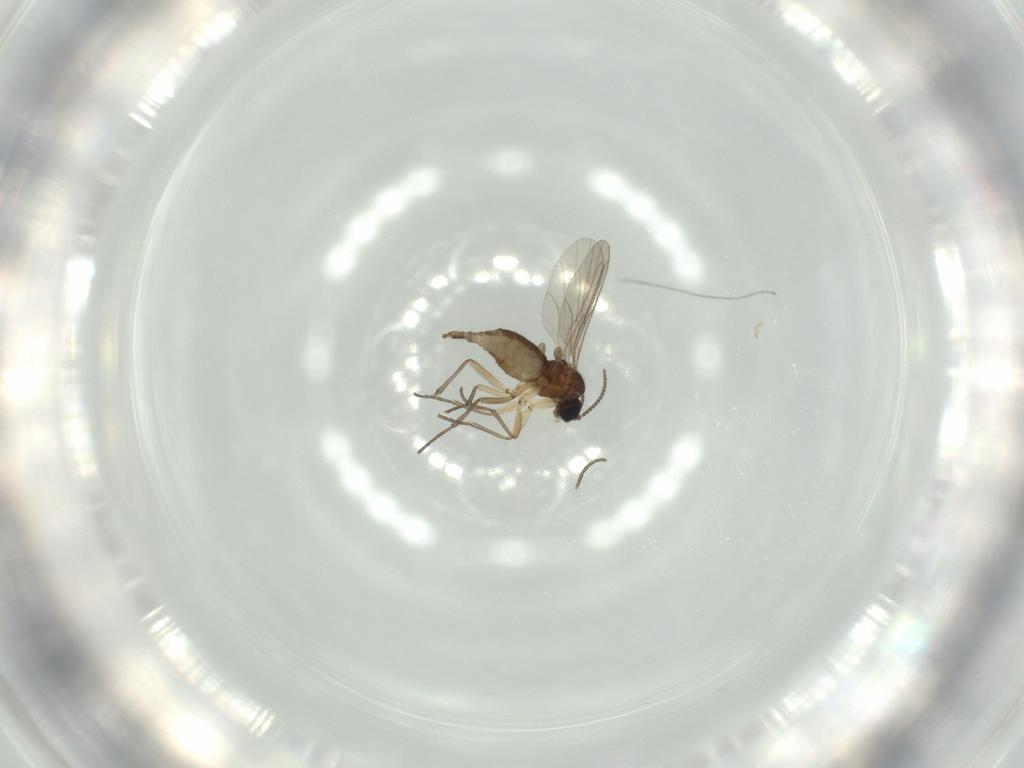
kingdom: Animalia
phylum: Arthropoda
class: Insecta
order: Diptera
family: Sciaridae
